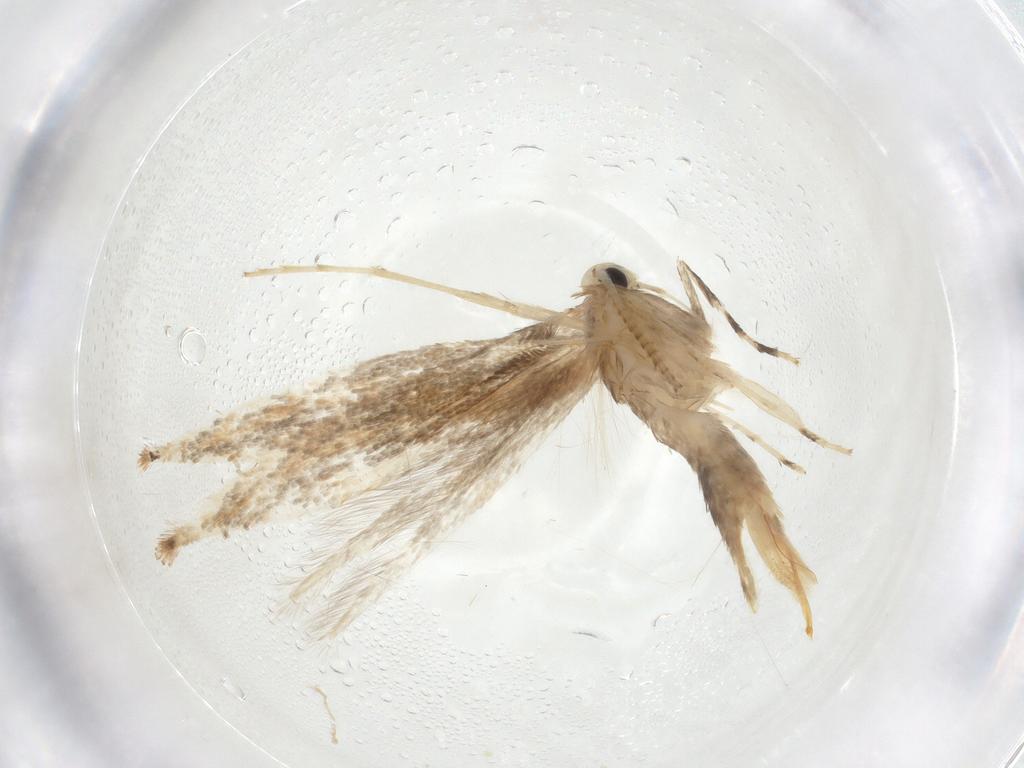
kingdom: Animalia
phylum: Arthropoda
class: Insecta
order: Lepidoptera
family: Gracillariidae
